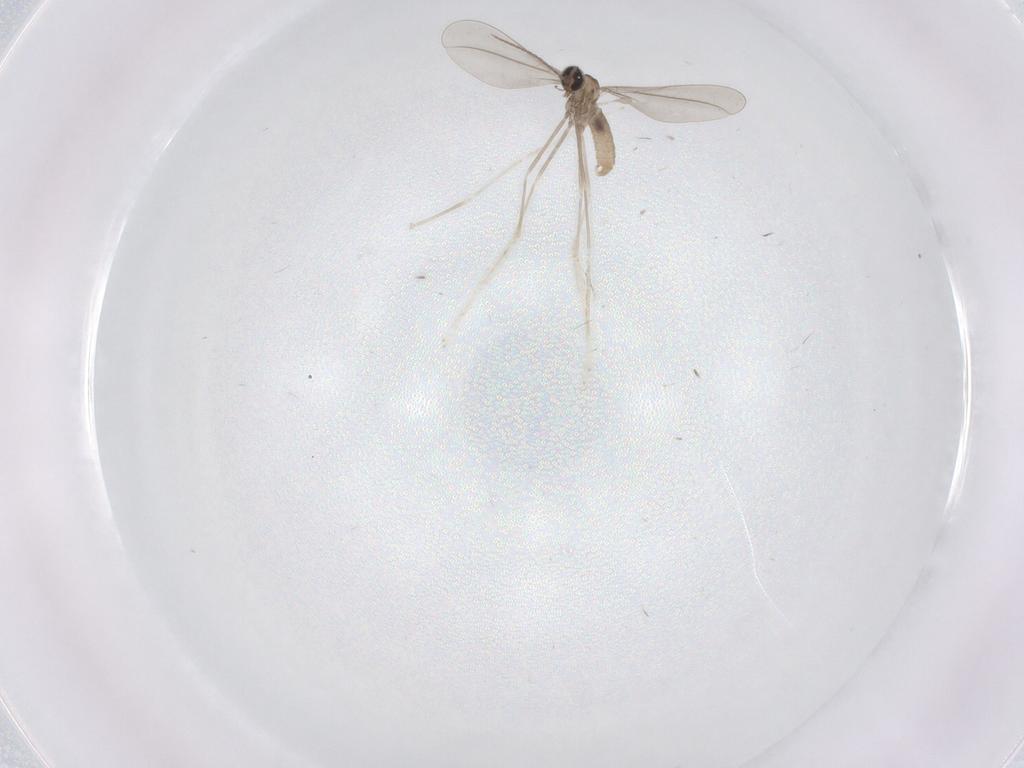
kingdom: Animalia
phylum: Arthropoda
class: Insecta
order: Diptera
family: Cecidomyiidae
